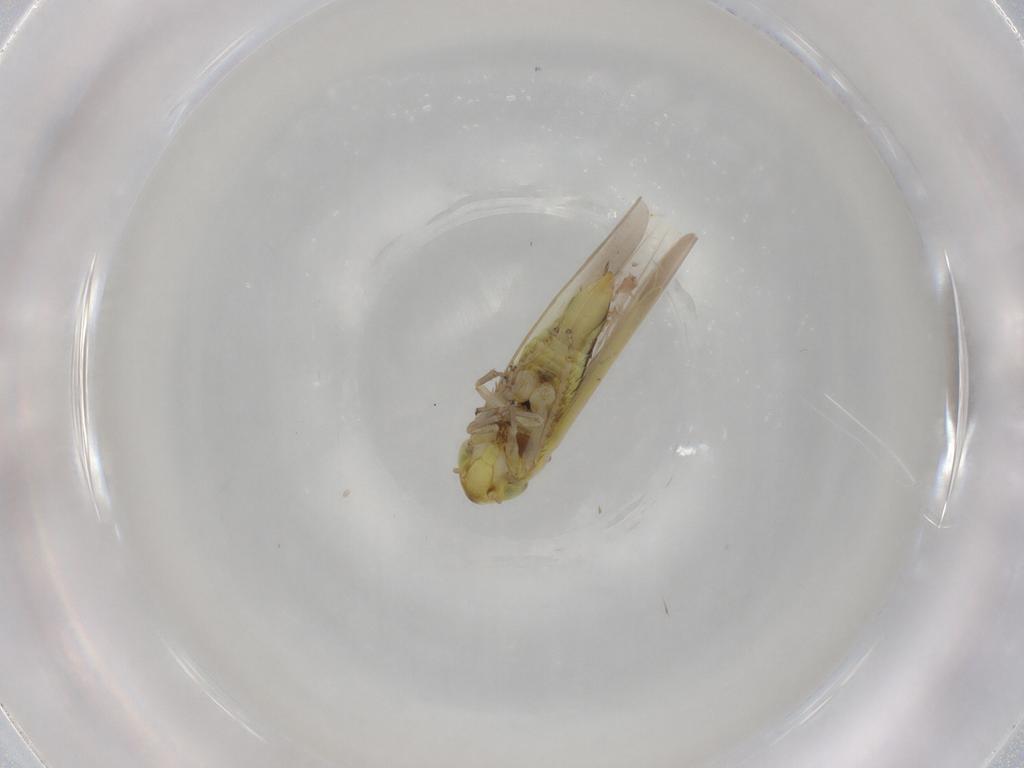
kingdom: Animalia
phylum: Arthropoda
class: Insecta
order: Hemiptera
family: Cicadellidae
